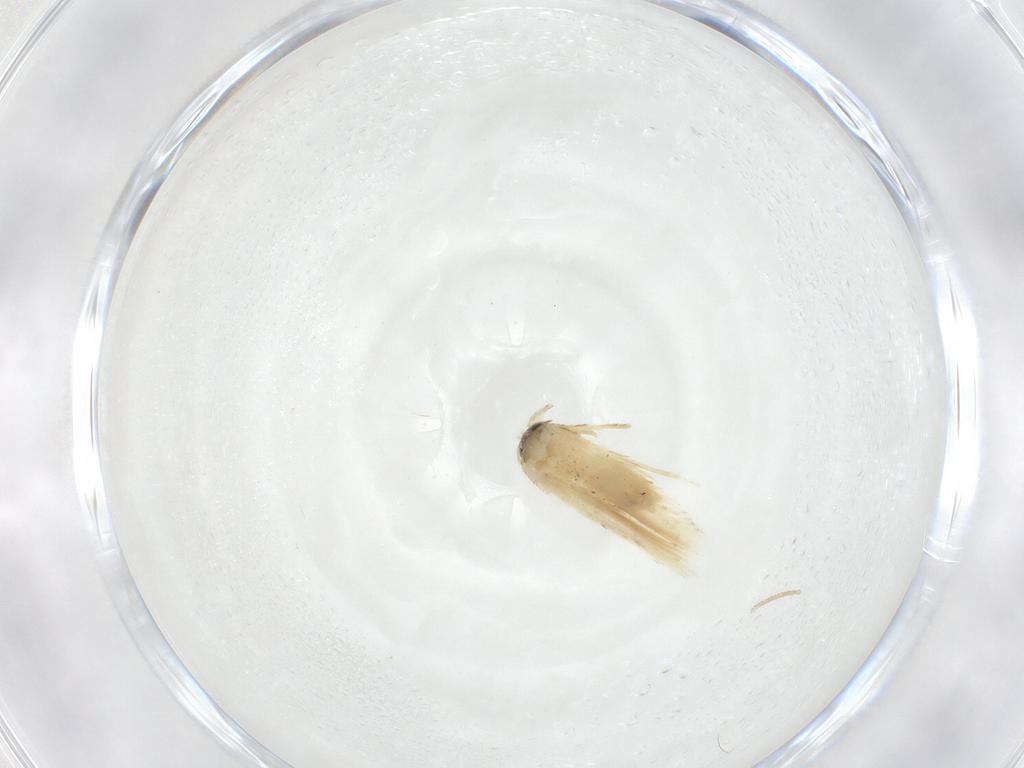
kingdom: Animalia
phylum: Arthropoda
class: Insecta
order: Lepidoptera
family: Nepticulidae
